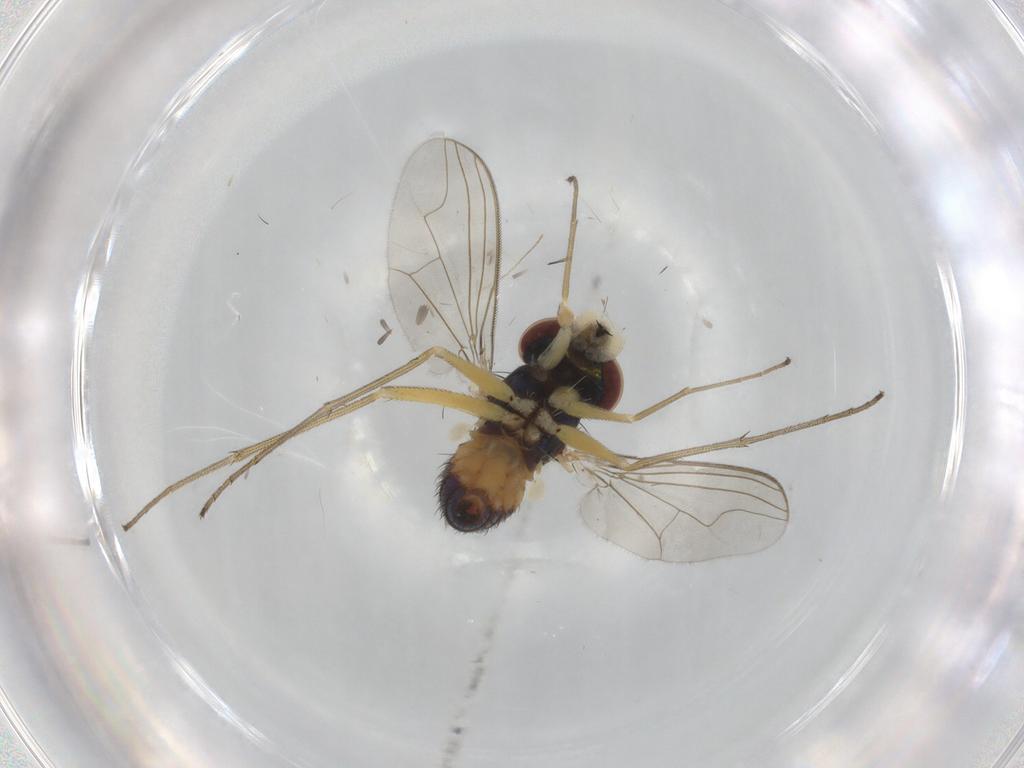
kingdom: Animalia
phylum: Arthropoda
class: Insecta
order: Diptera
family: Dolichopodidae
